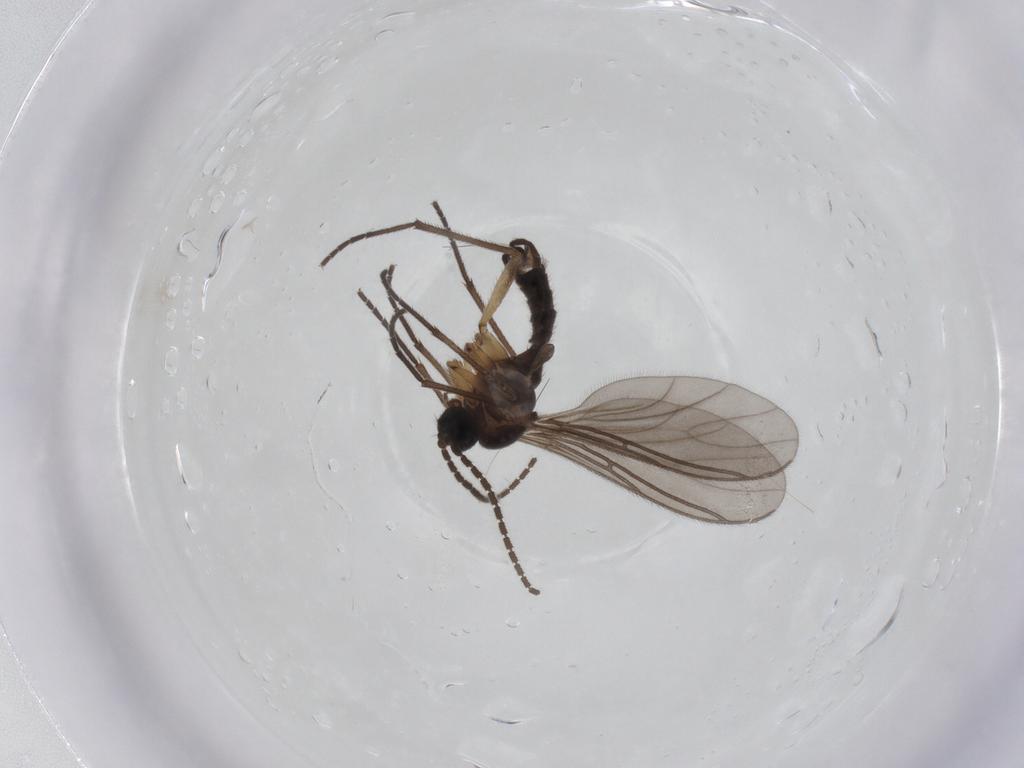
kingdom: Animalia
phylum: Arthropoda
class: Insecta
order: Diptera
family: Sciaridae
